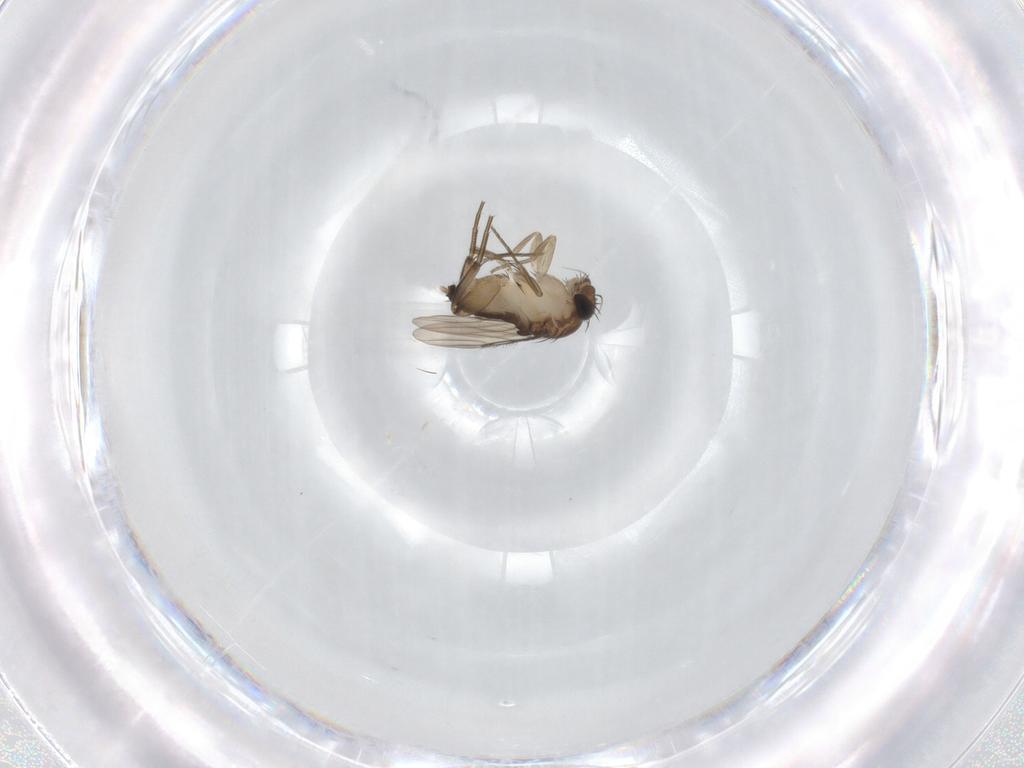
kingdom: Animalia
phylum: Arthropoda
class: Insecta
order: Diptera
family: Phoridae
